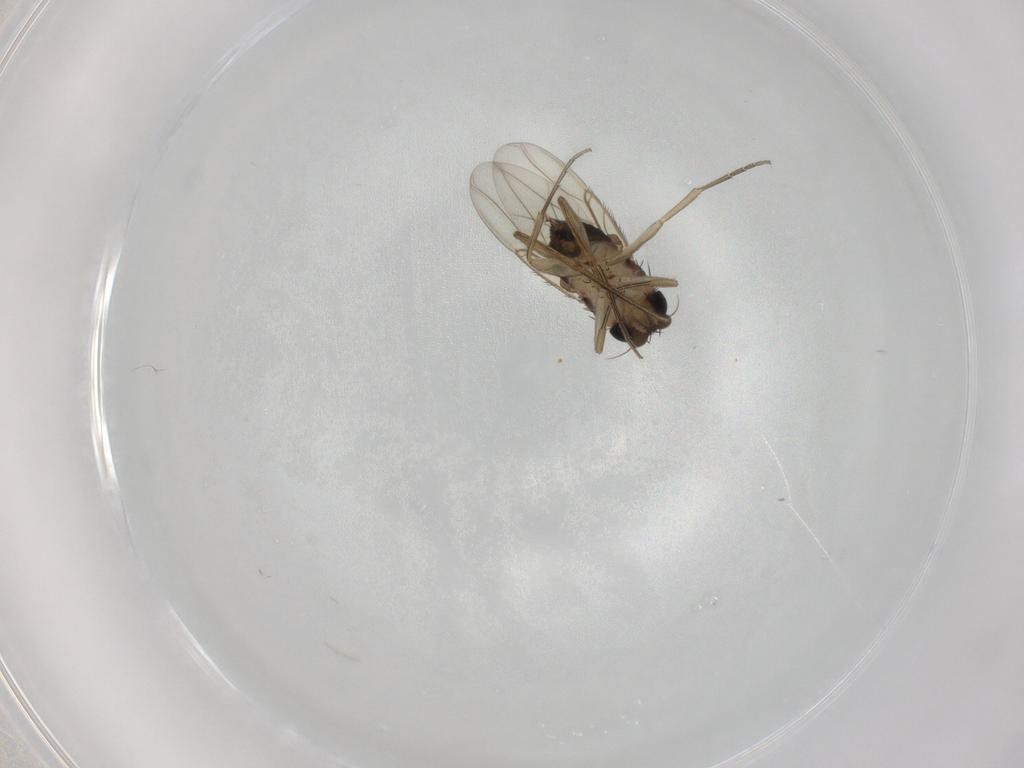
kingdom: Animalia
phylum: Arthropoda
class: Insecta
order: Diptera
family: Phoridae
